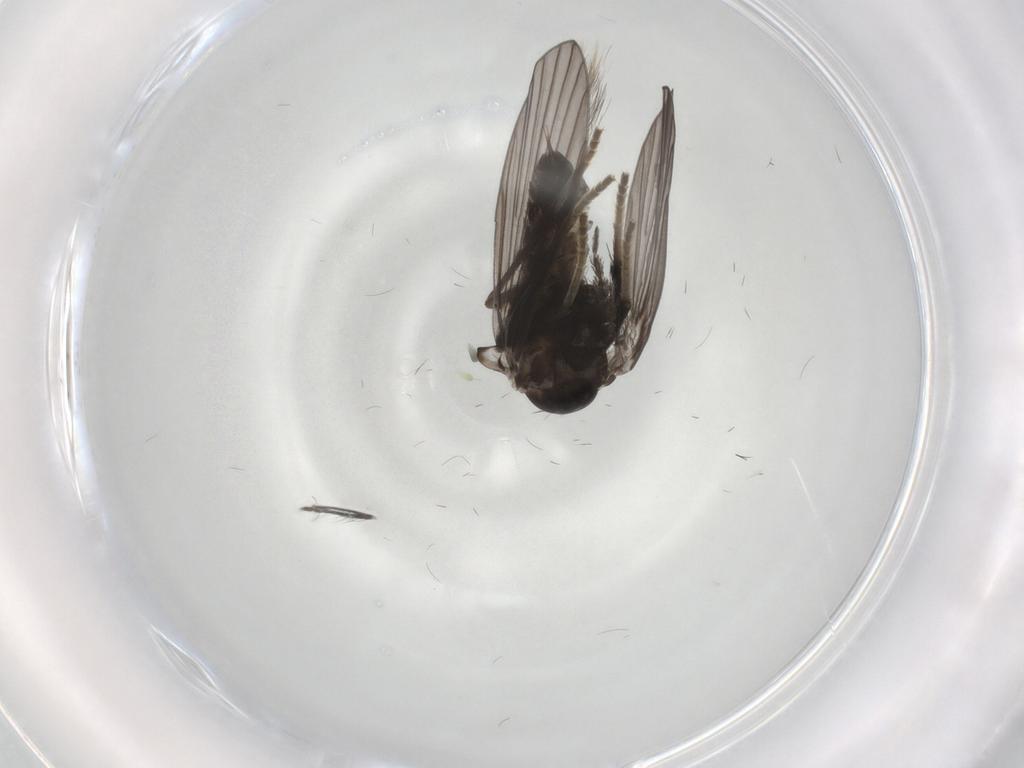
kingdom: Animalia
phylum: Arthropoda
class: Insecta
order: Diptera
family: Psychodidae
